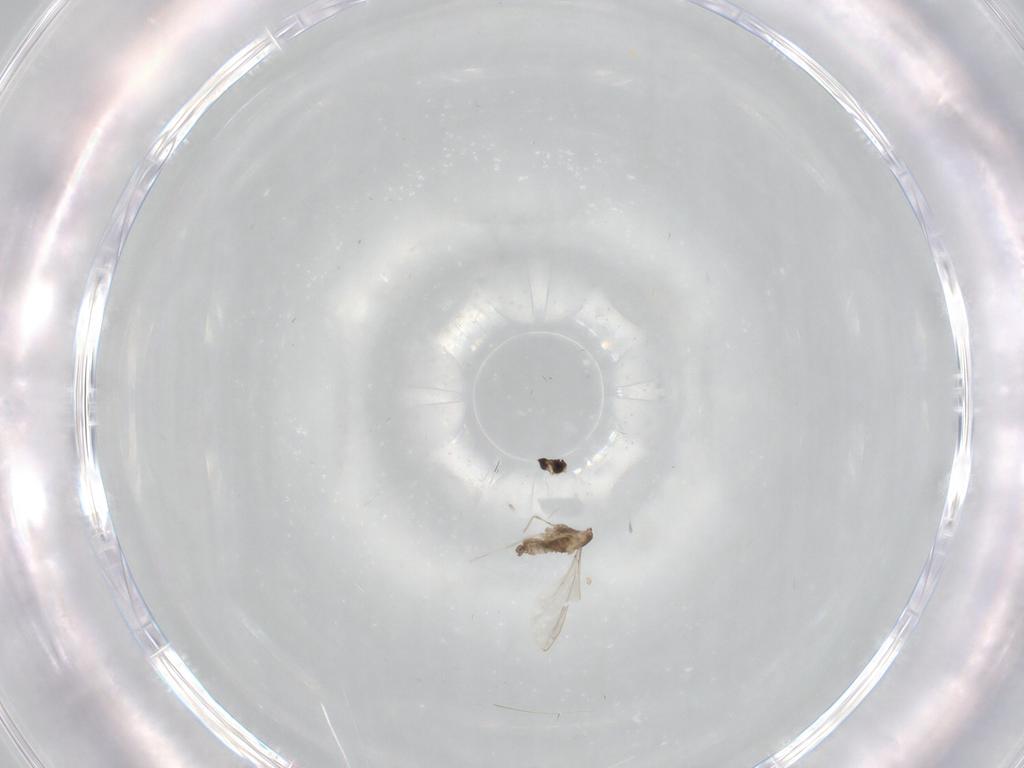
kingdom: Animalia
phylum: Arthropoda
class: Insecta
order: Diptera
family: Cecidomyiidae
